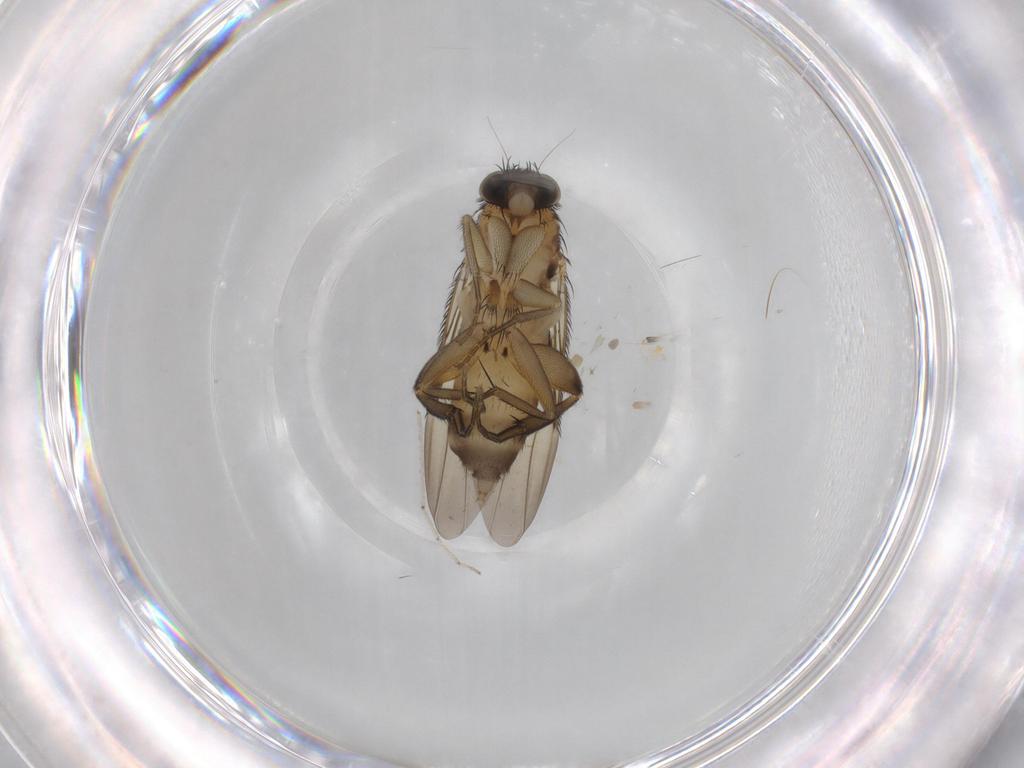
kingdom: Animalia
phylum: Arthropoda
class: Insecta
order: Diptera
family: Phoridae
